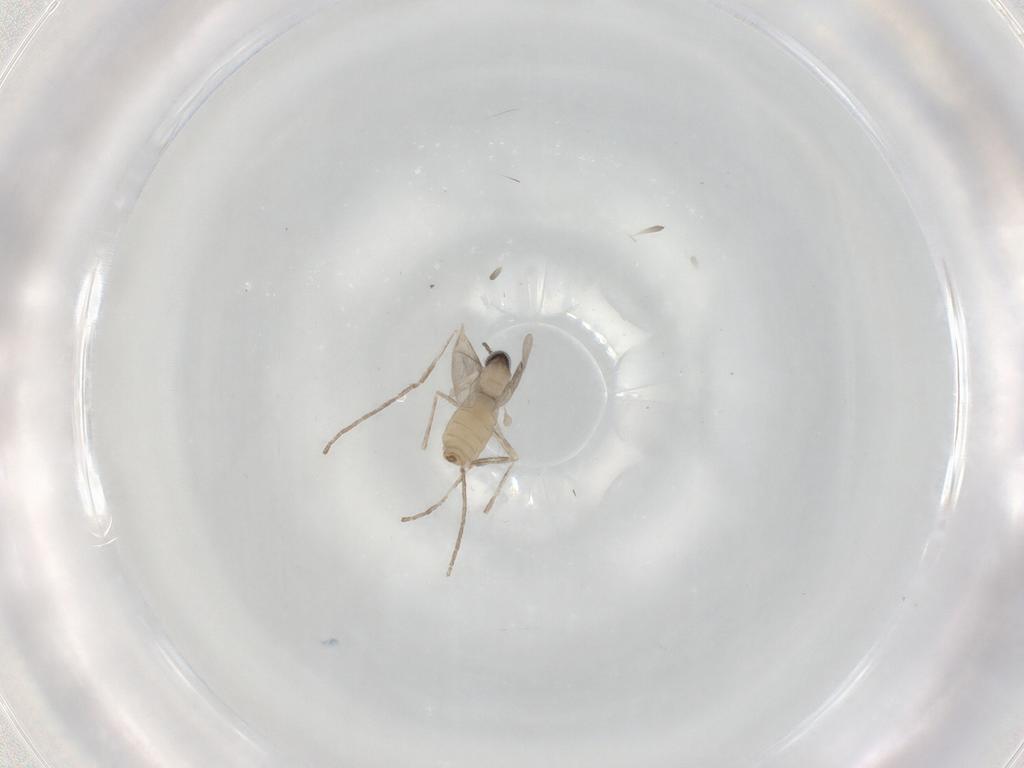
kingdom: Animalia
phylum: Arthropoda
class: Insecta
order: Diptera
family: Cecidomyiidae
